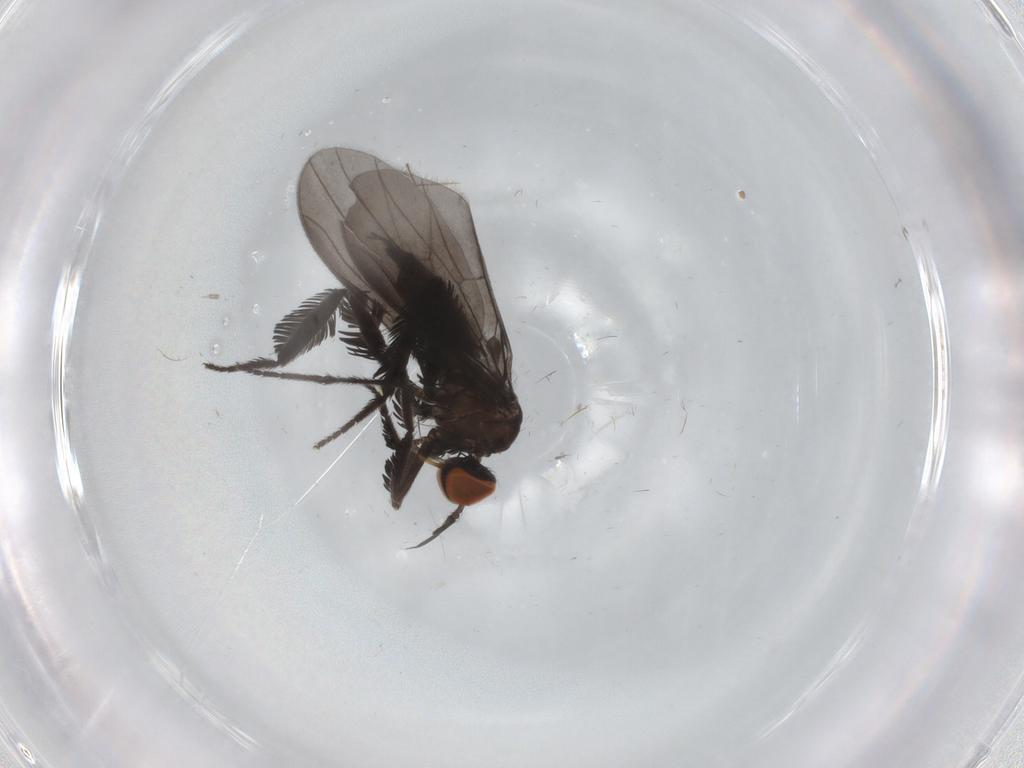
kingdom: Animalia
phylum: Arthropoda
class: Insecta
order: Diptera
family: Empididae
